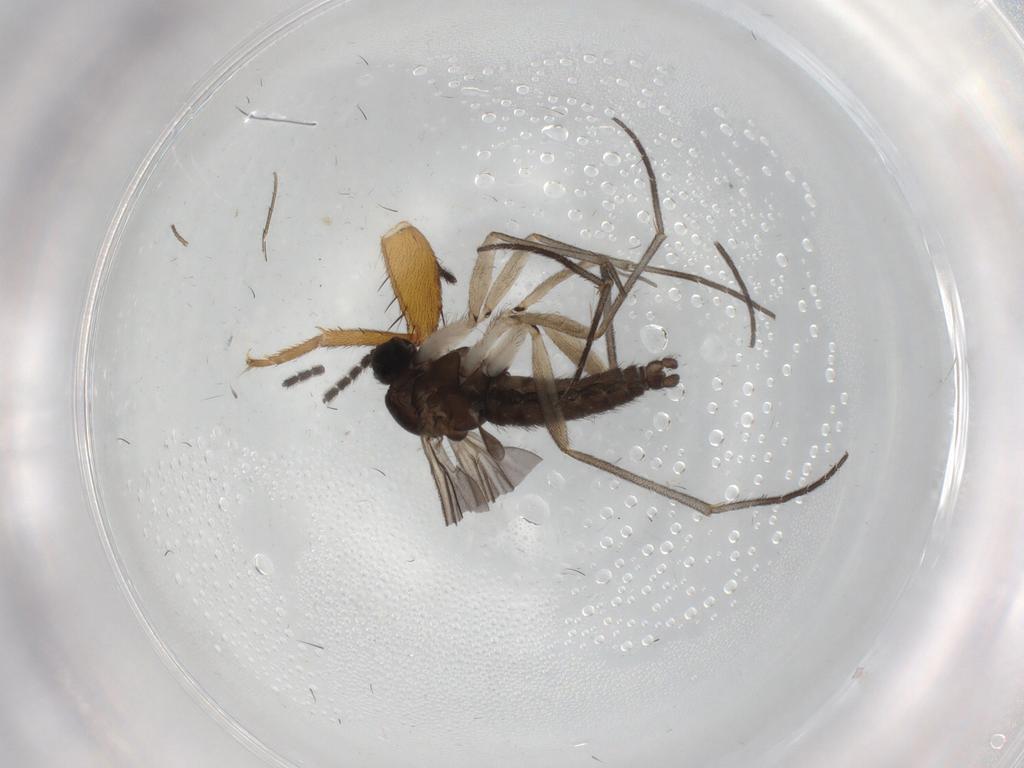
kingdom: Animalia
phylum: Arthropoda
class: Insecta
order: Diptera
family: Sciaridae
